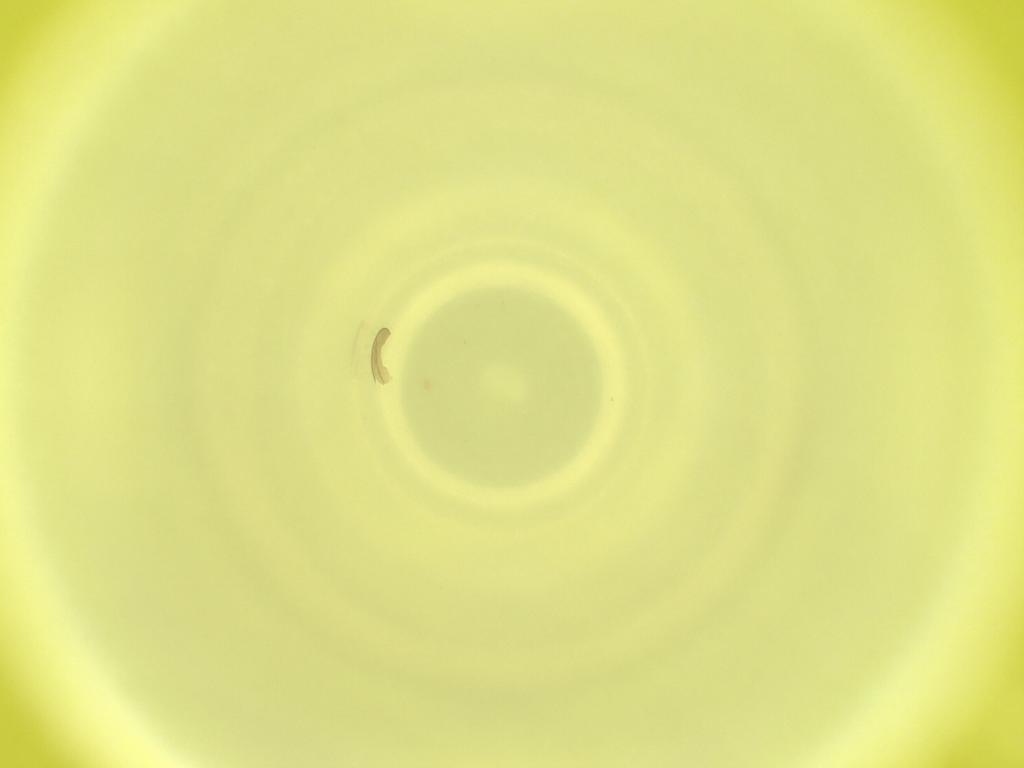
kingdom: Animalia
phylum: Arthropoda
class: Insecta
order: Diptera
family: Cecidomyiidae
